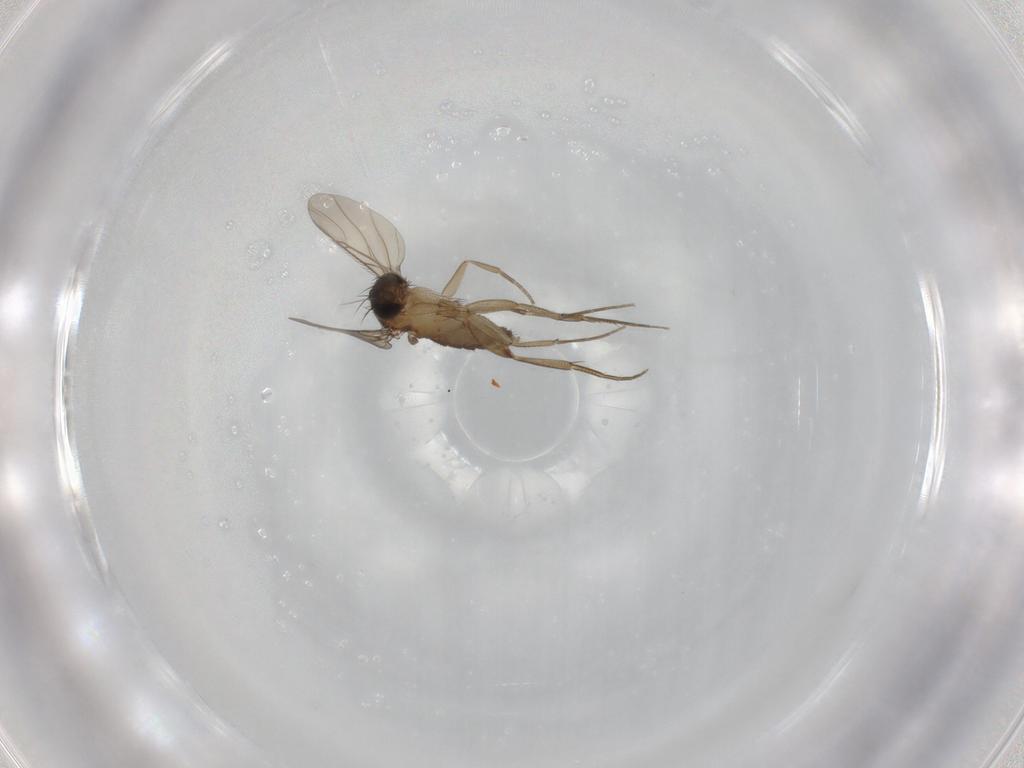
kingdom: Animalia
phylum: Arthropoda
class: Insecta
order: Diptera
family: Phoridae
